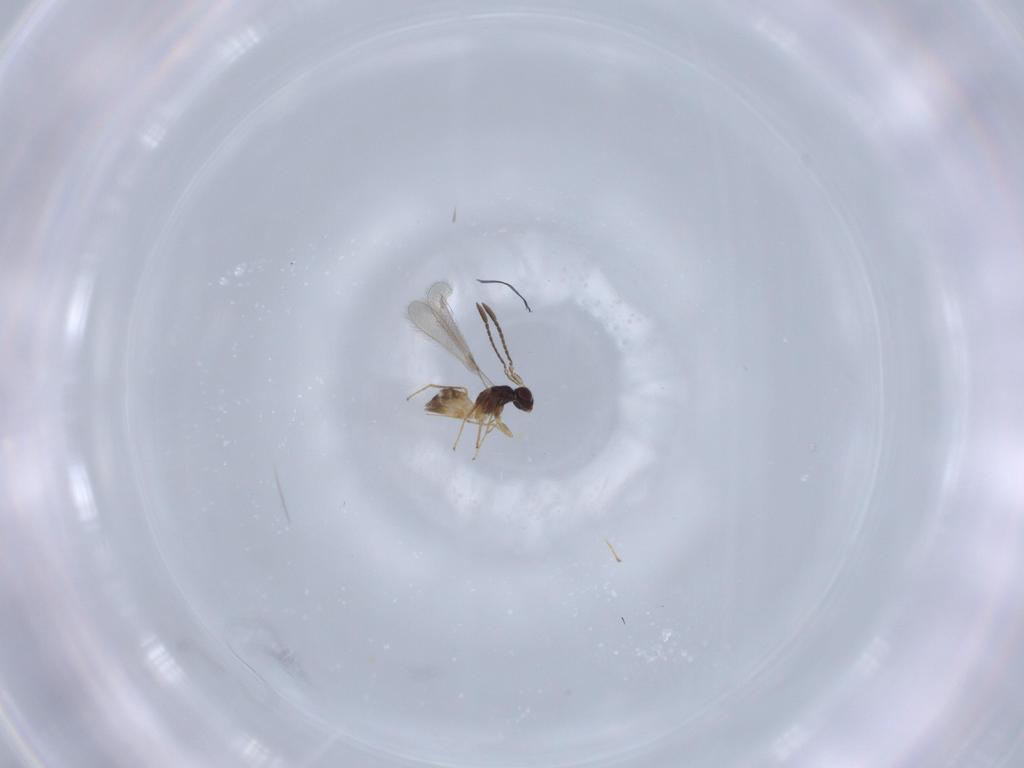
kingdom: Animalia
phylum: Arthropoda
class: Insecta
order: Hymenoptera
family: Mymaridae
